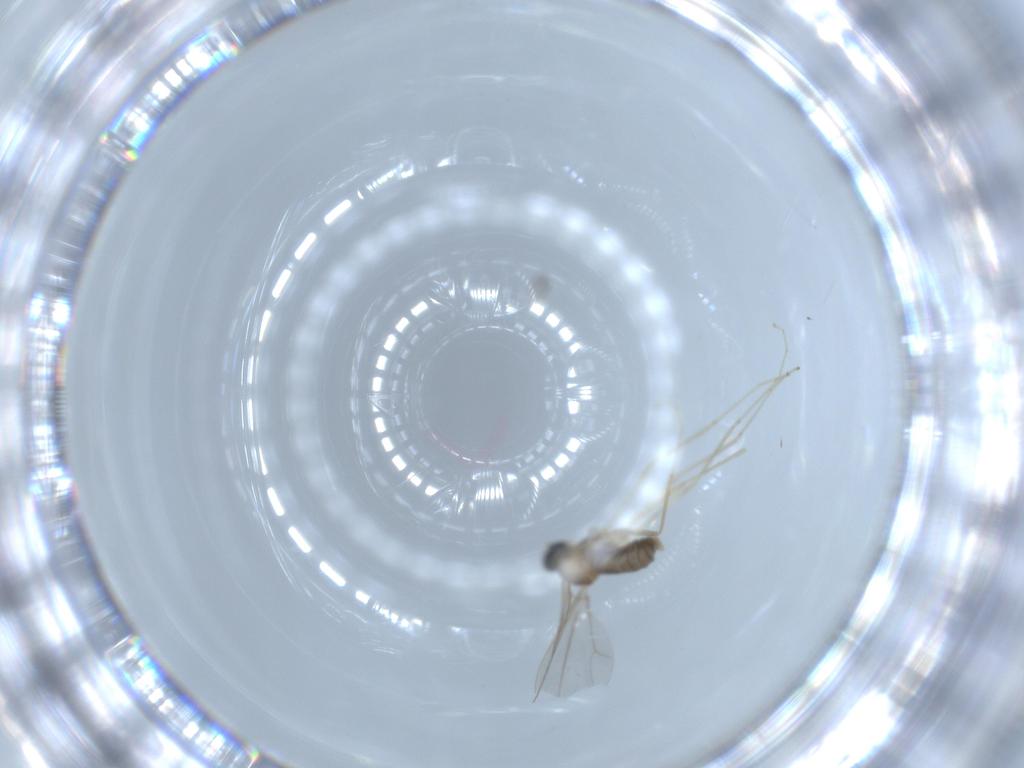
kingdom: Animalia
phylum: Arthropoda
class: Insecta
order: Diptera
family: Cecidomyiidae
